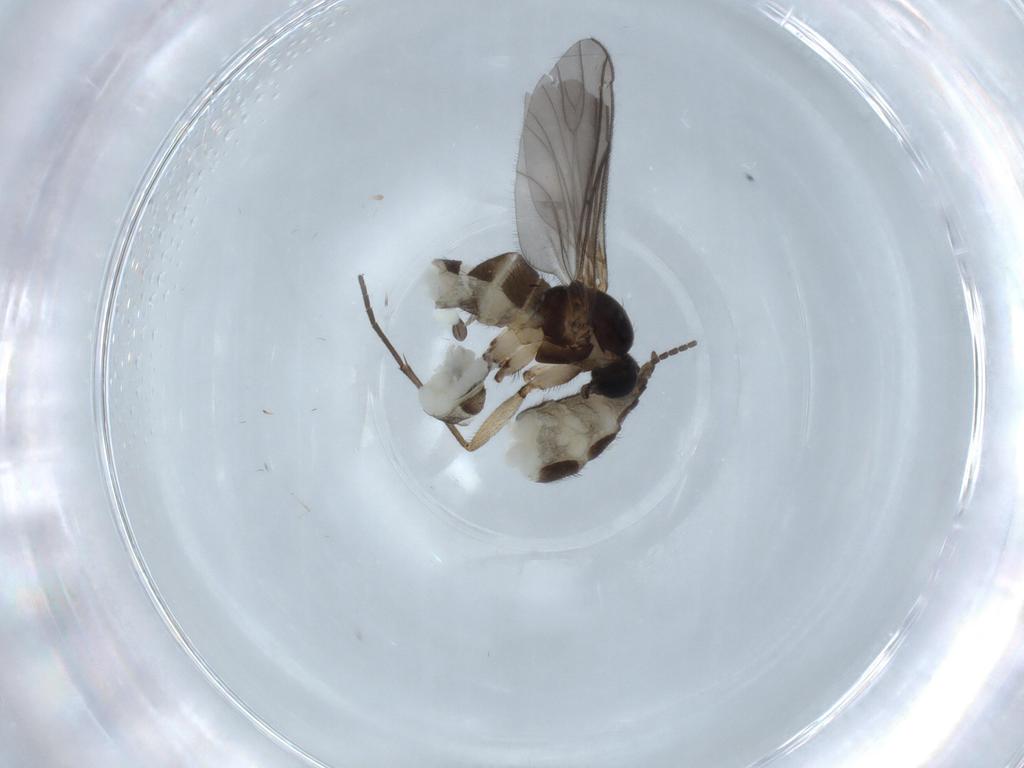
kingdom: Animalia
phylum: Arthropoda
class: Insecta
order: Diptera
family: Sciaridae
